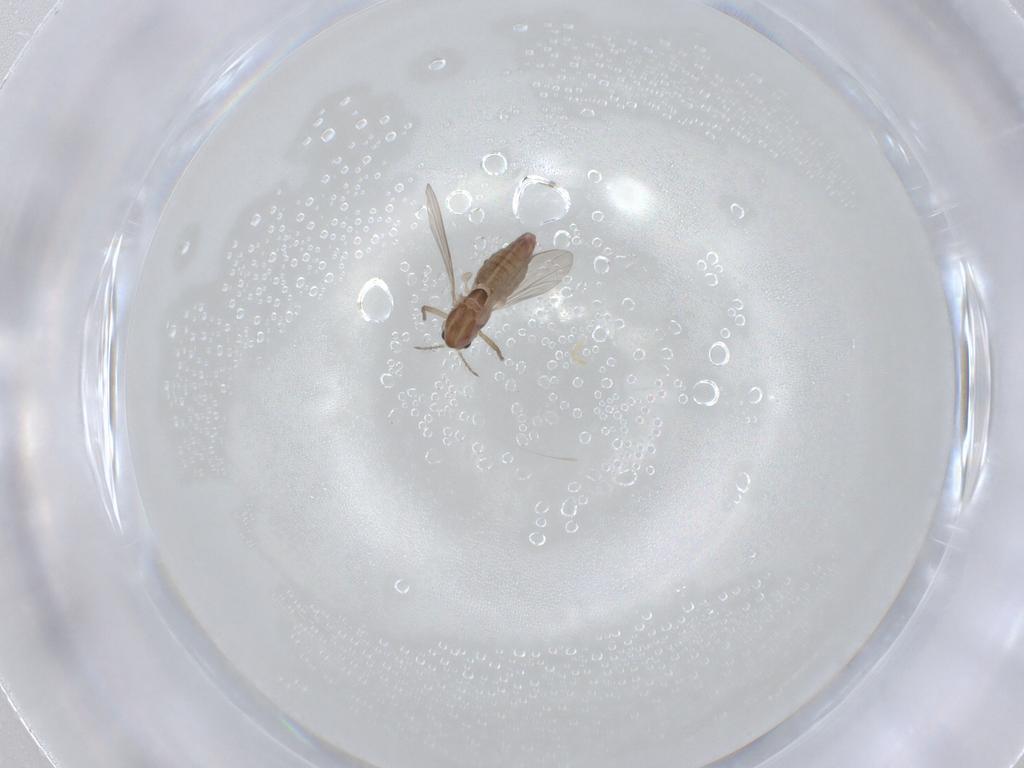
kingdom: Animalia
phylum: Arthropoda
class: Insecta
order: Diptera
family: Chironomidae
